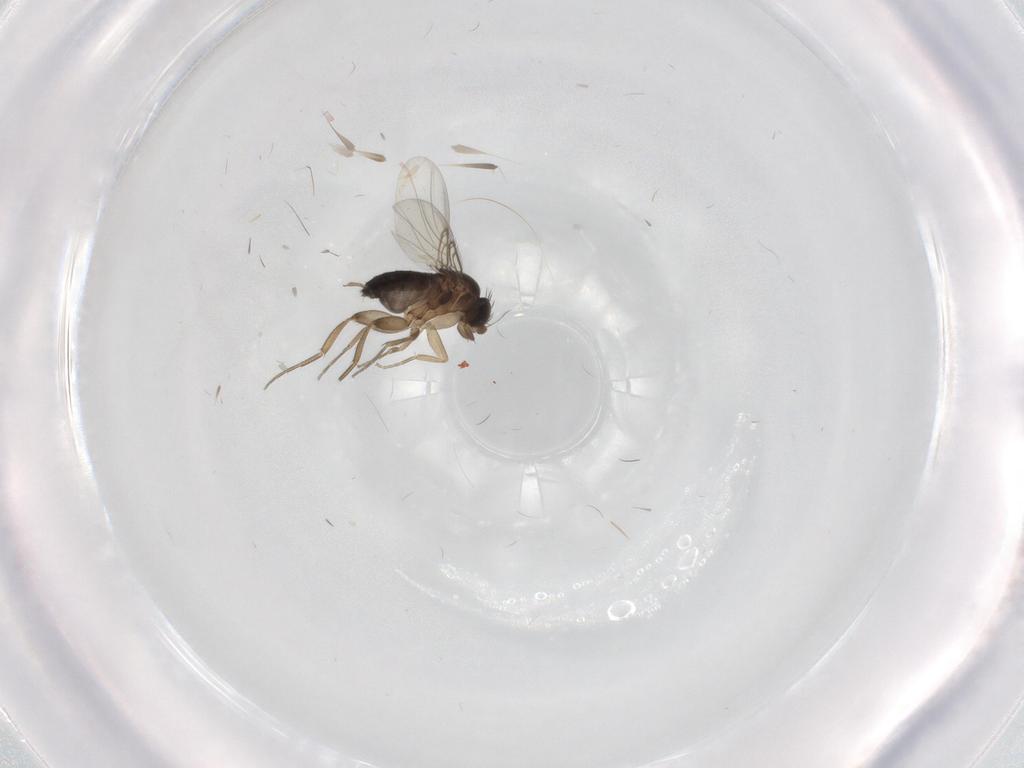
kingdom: Animalia
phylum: Arthropoda
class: Insecta
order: Diptera
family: Phoridae
